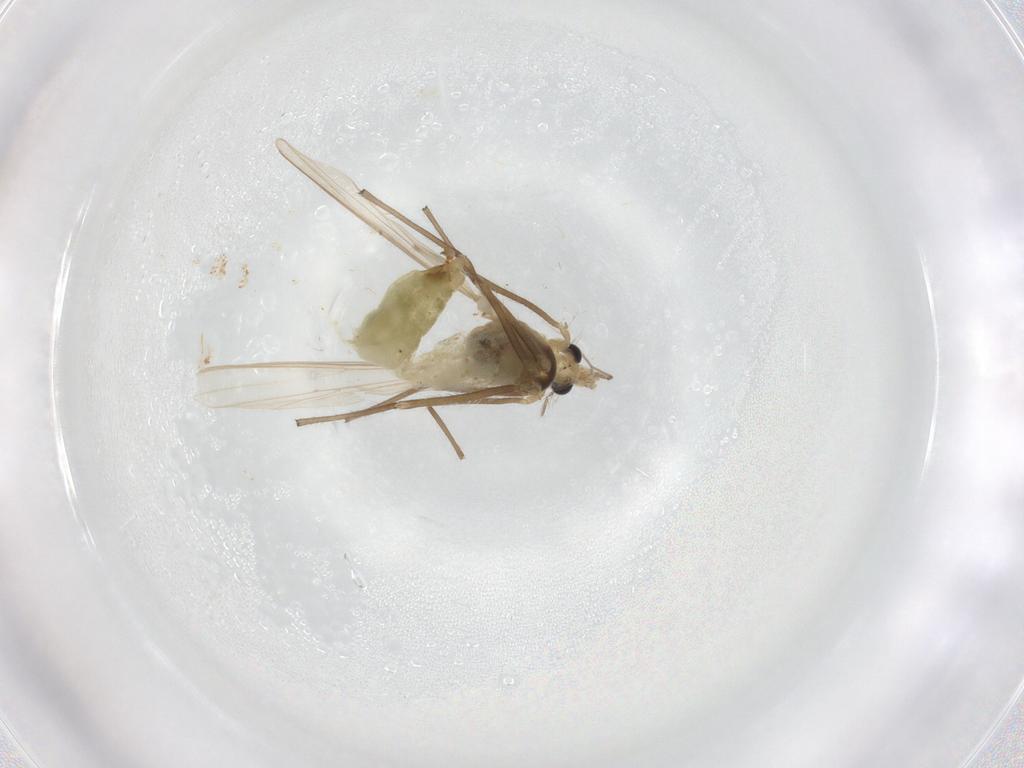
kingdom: Animalia
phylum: Arthropoda
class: Insecta
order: Diptera
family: Chironomidae
